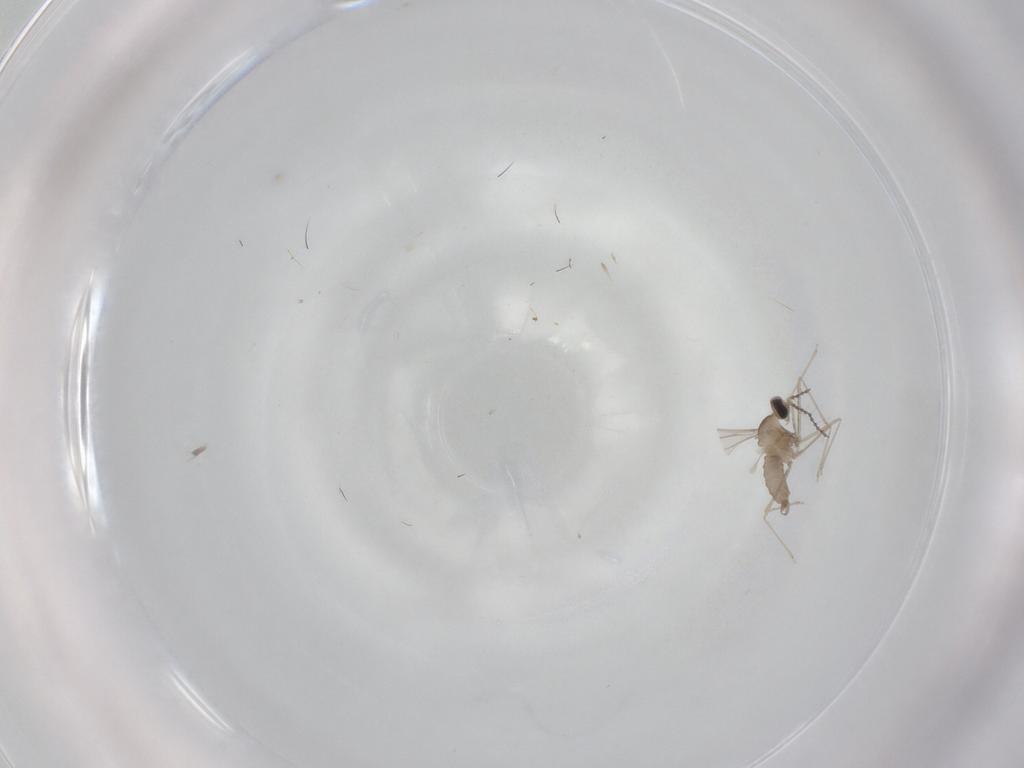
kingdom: Animalia
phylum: Arthropoda
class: Insecta
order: Diptera
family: Cecidomyiidae
